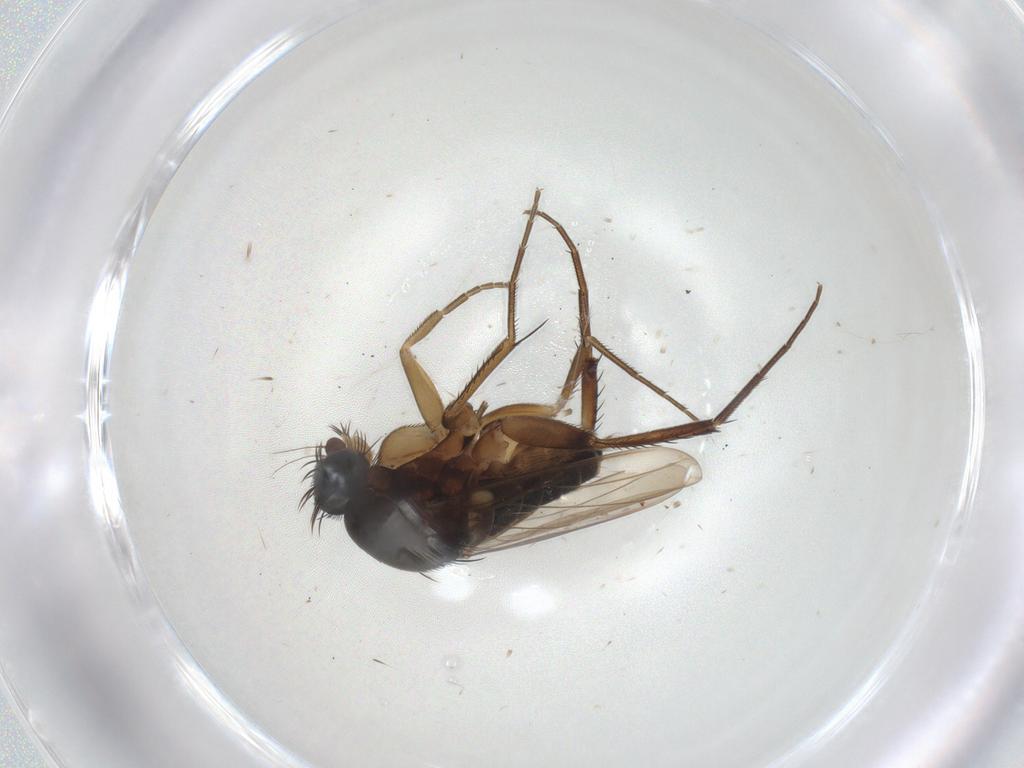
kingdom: Animalia
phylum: Arthropoda
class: Insecta
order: Diptera
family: Phoridae
